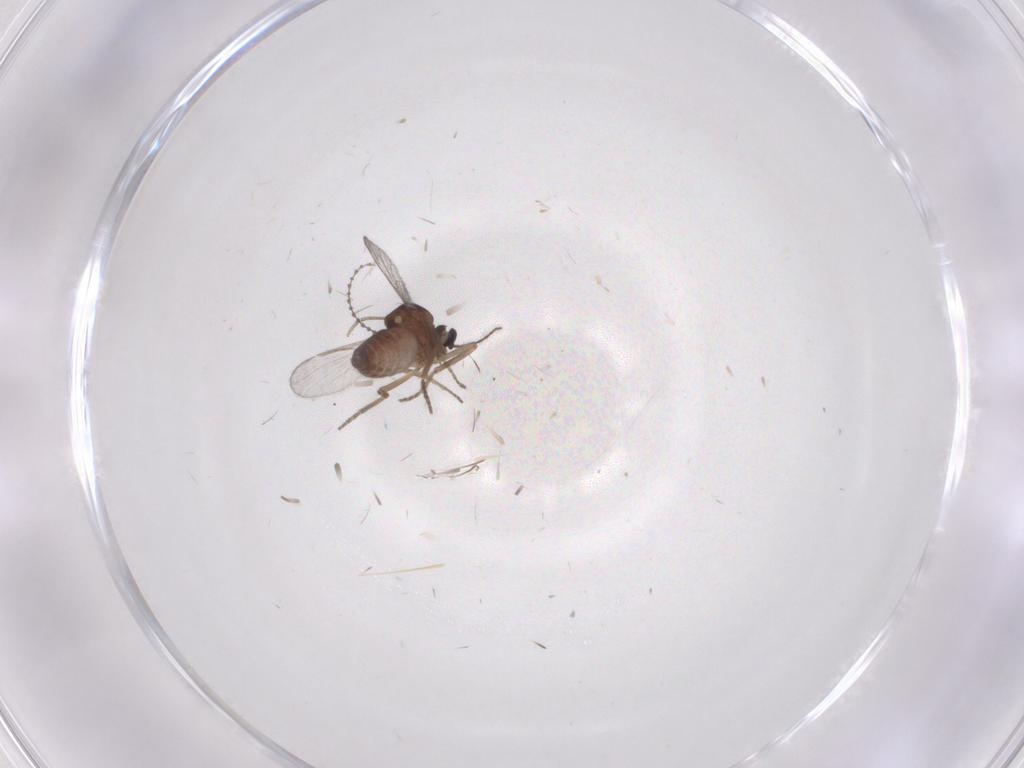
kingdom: Animalia
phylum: Arthropoda
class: Insecta
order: Diptera
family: Ceratopogonidae
